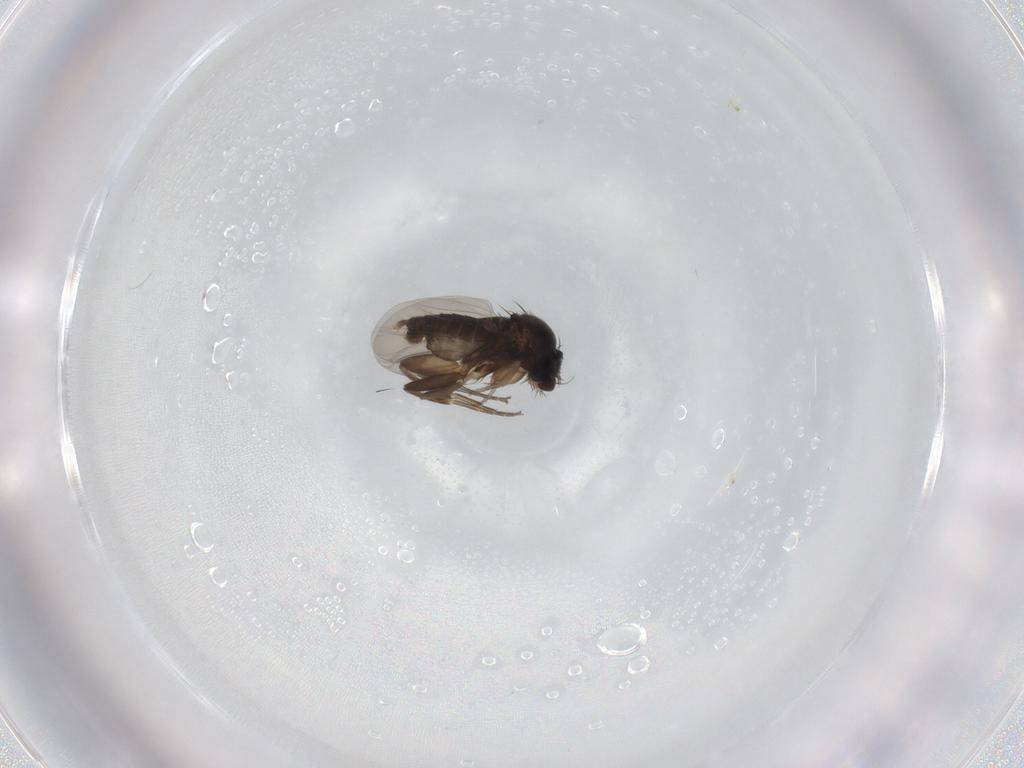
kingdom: Animalia
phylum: Arthropoda
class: Insecta
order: Diptera
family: Phoridae
